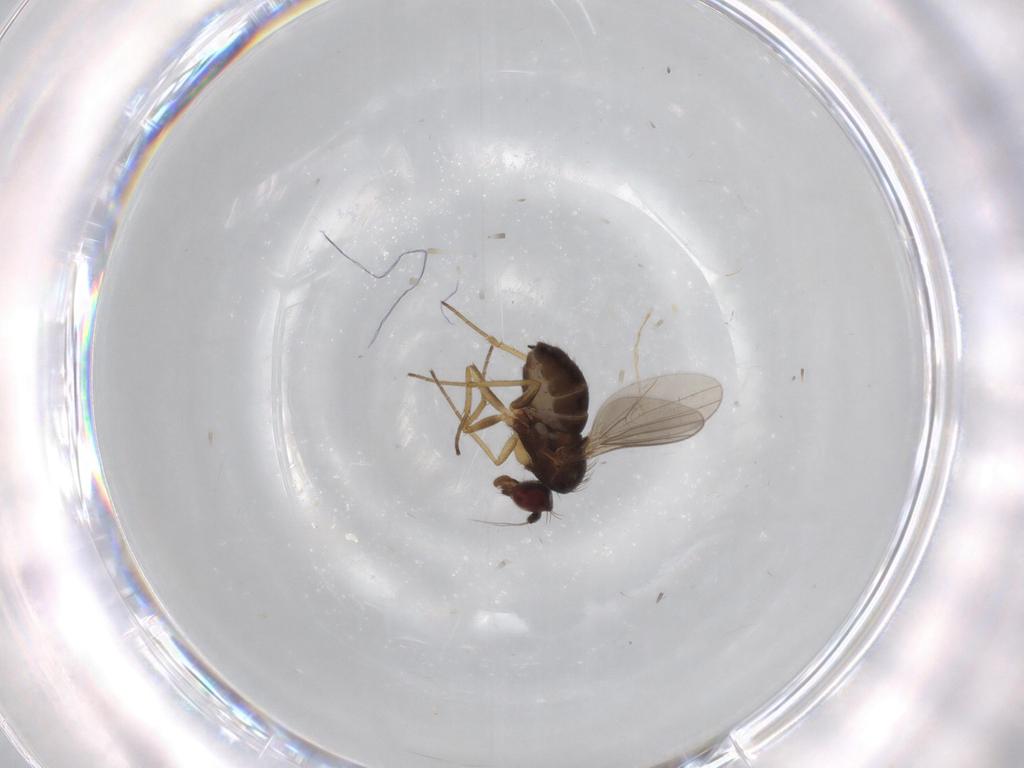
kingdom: Animalia
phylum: Arthropoda
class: Insecta
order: Diptera
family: Dolichopodidae
